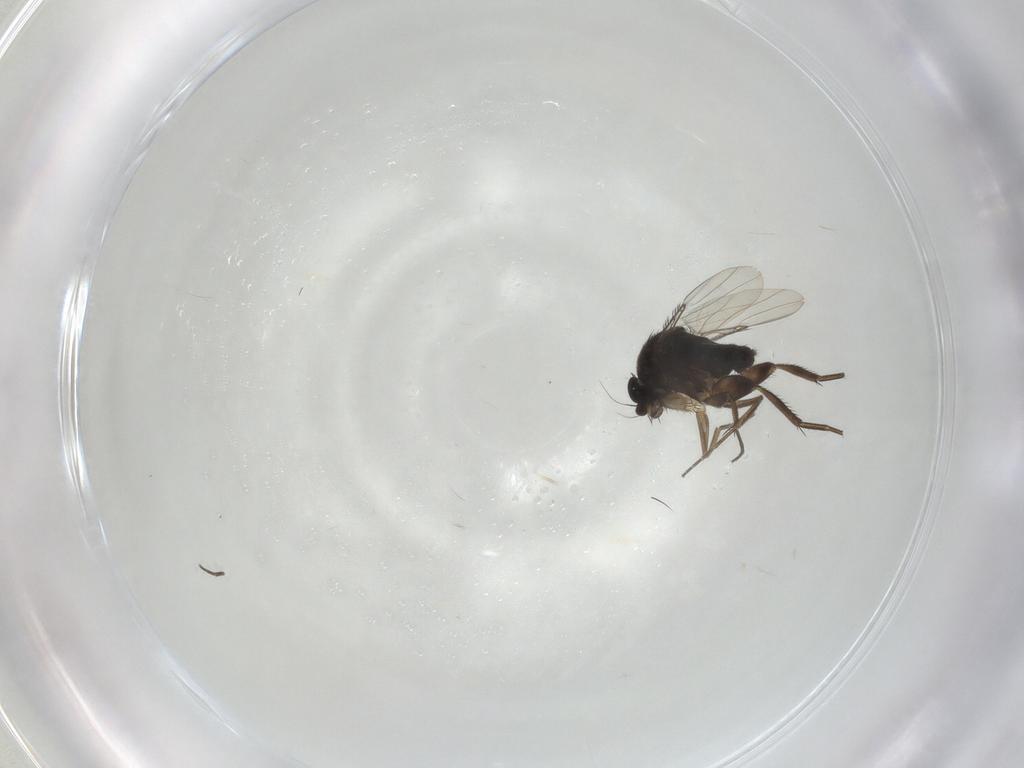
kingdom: Animalia
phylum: Arthropoda
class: Insecta
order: Diptera
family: Phoridae
